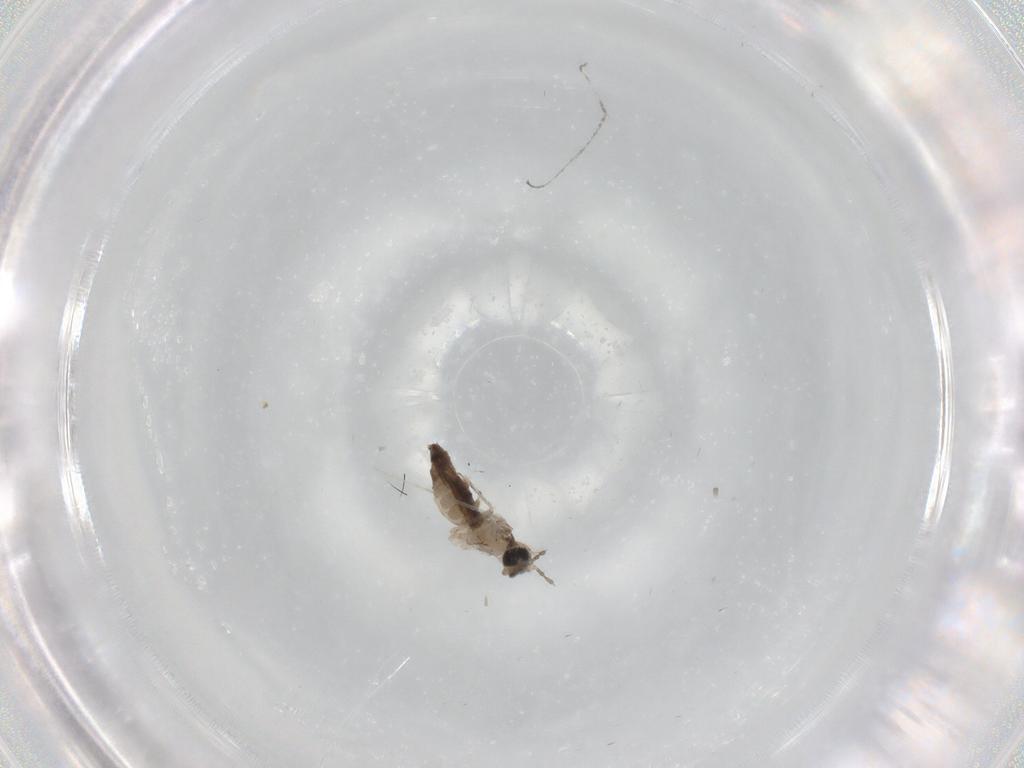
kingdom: Animalia
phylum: Arthropoda
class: Insecta
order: Diptera
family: Cecidomyiidae
